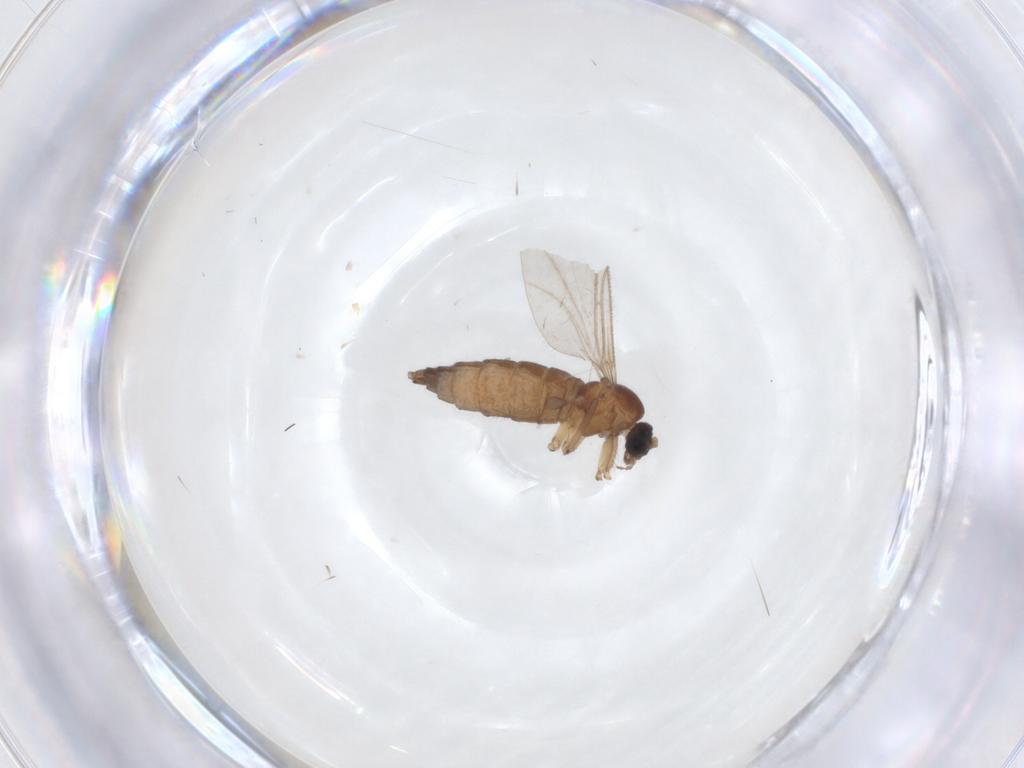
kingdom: Animalia
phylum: Arthropoda
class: Insecta
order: Diptera
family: Sciaridae
